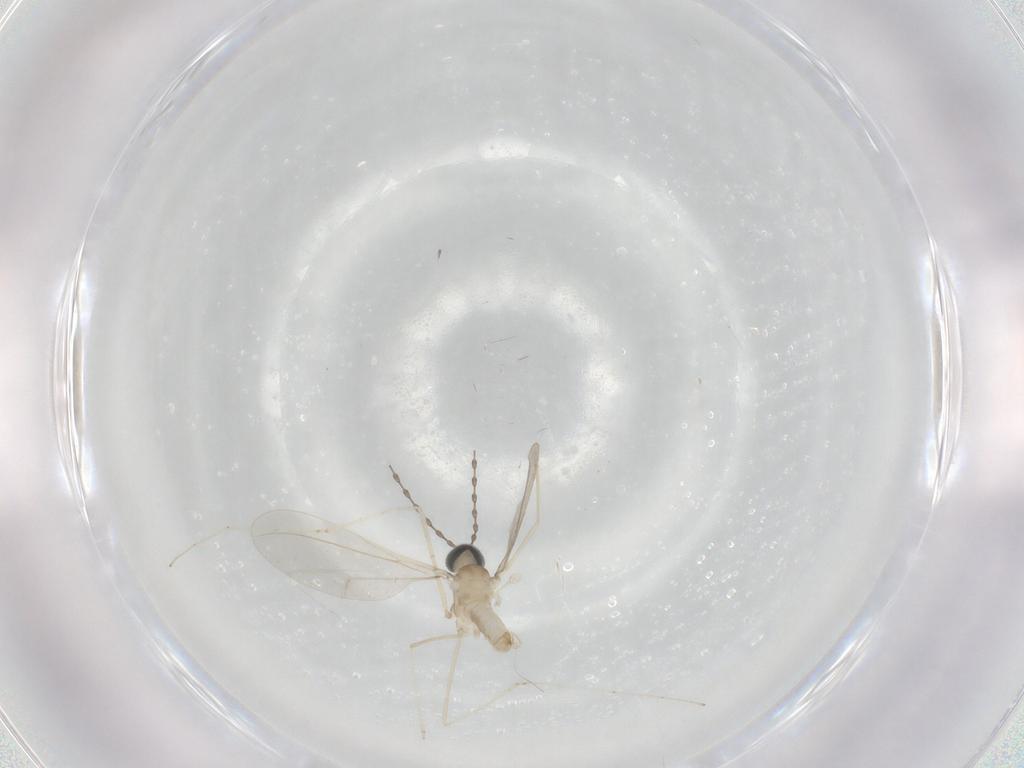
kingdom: Animalia
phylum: Arthropoda
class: Insecta
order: Diptera
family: Cecidomyiidae
